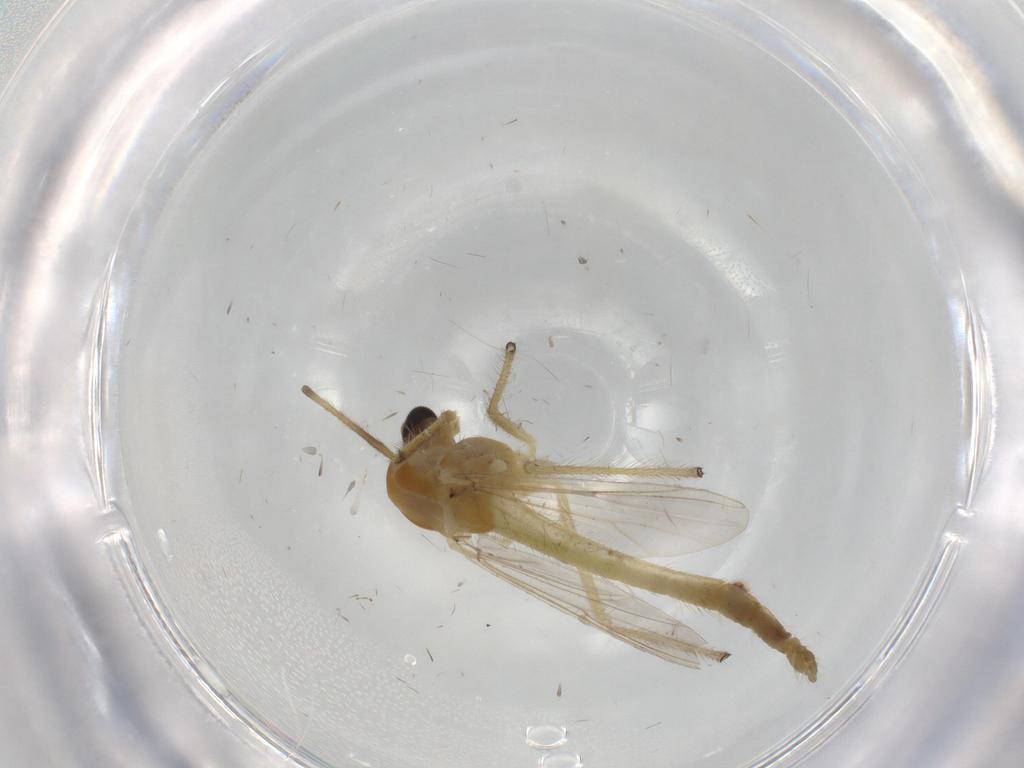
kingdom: Animalia
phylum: Arthropoda
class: Insecta
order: Diptera
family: Chironomidae
